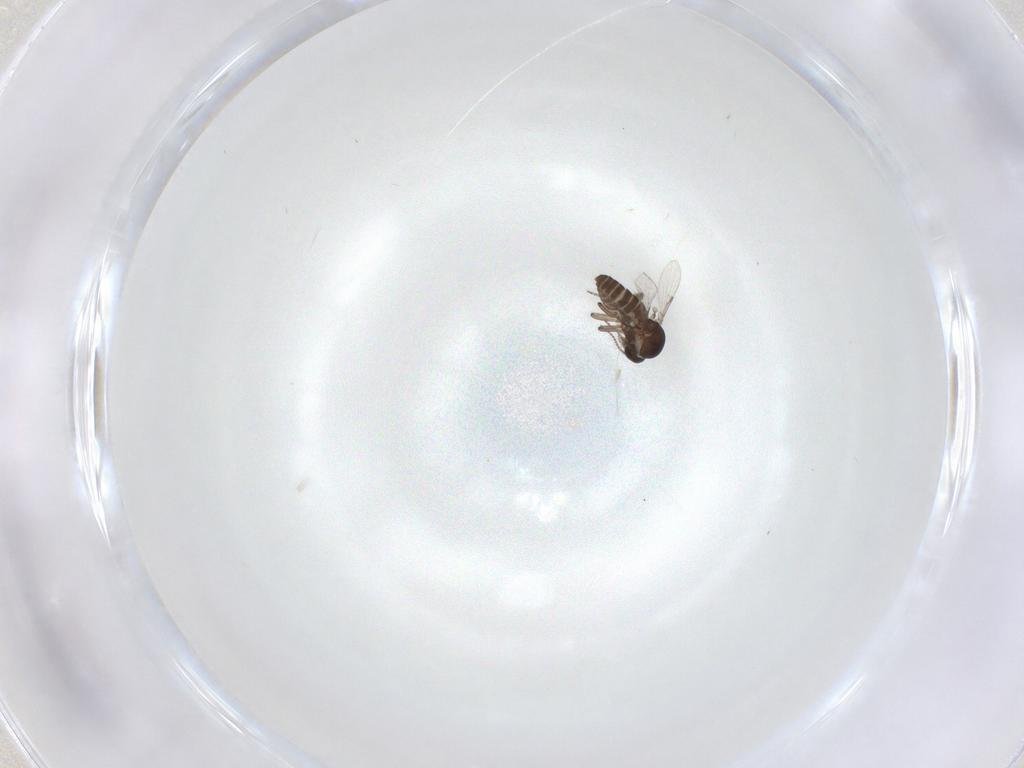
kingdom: Animalia
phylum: Arthropoda
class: Insecta
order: Diptera
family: Ceratopogonidae
